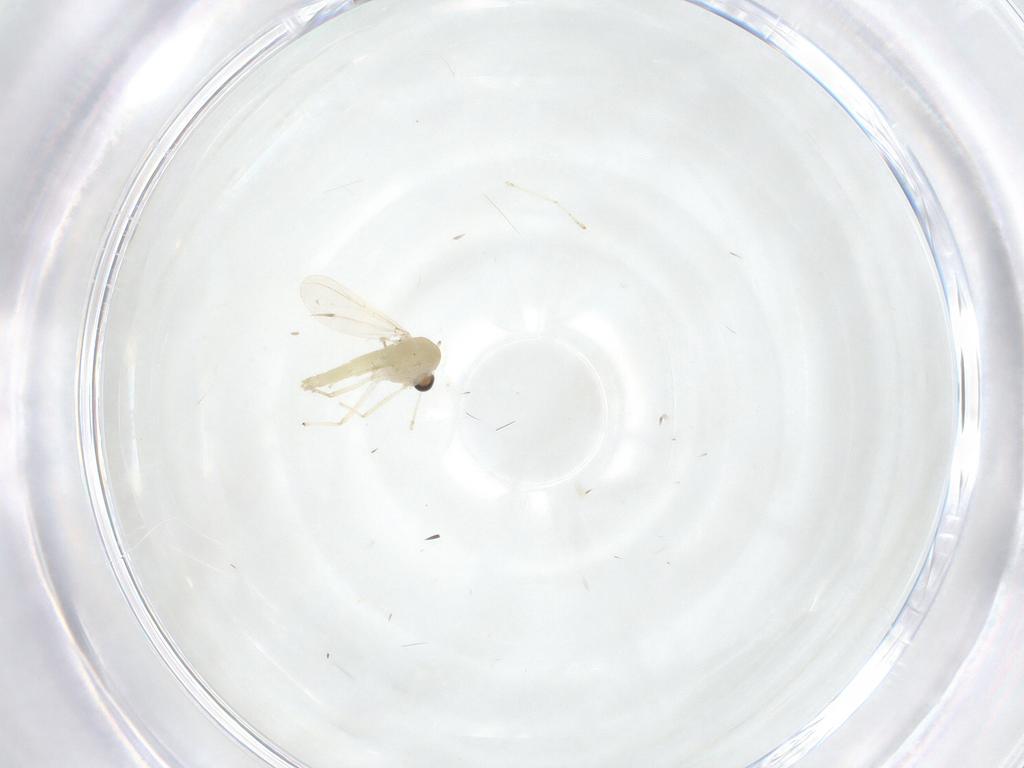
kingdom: Animalia
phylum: Arthropoda
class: Insecta
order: Diptera
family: Chironomidae
